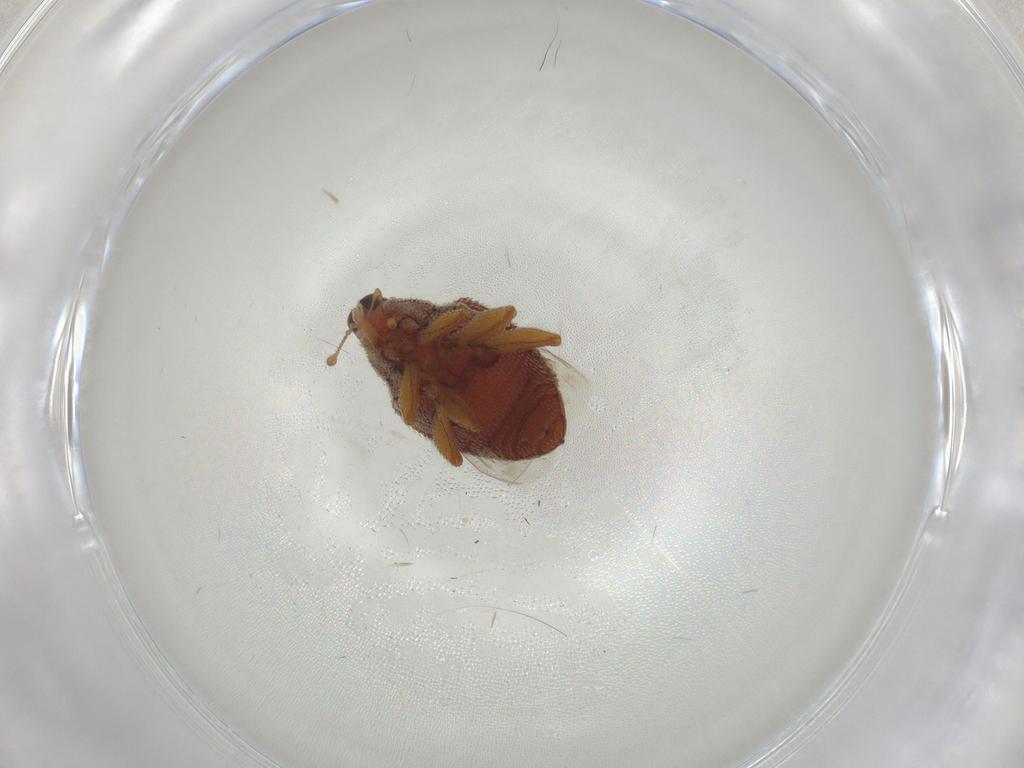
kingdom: Animalia
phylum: Arthropoda
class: Insecta
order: Coleoptera
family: Curculionidae
